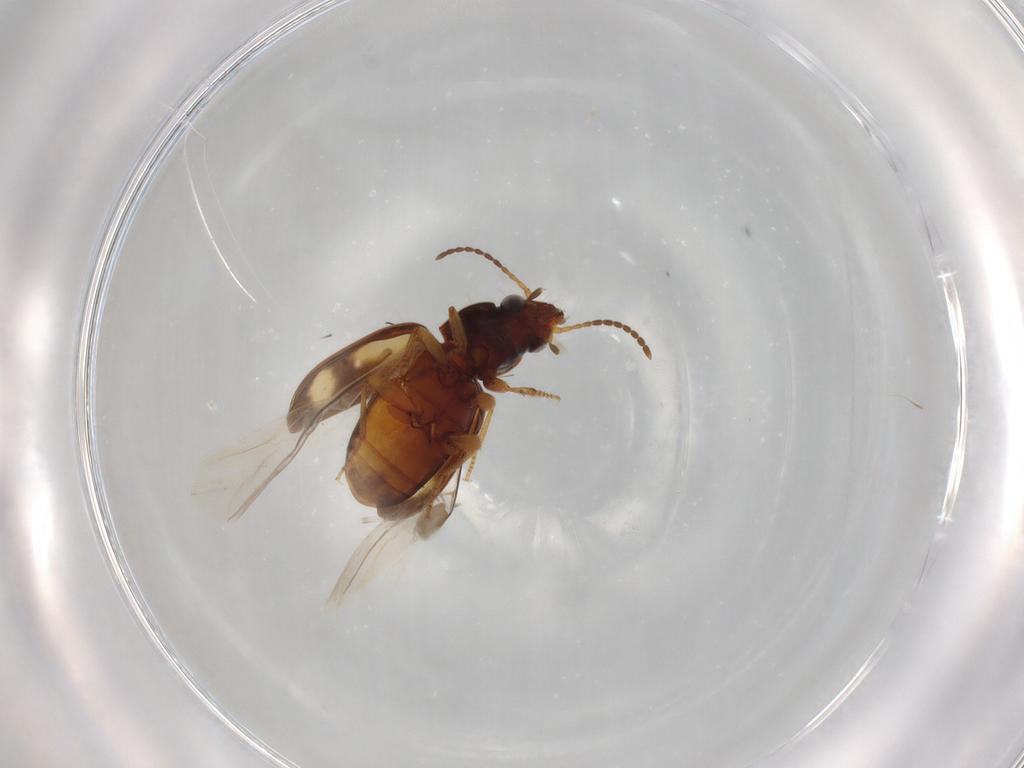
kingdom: Animalia
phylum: Arthropoda
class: Insecta
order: Coleoptera
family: Carabidae
